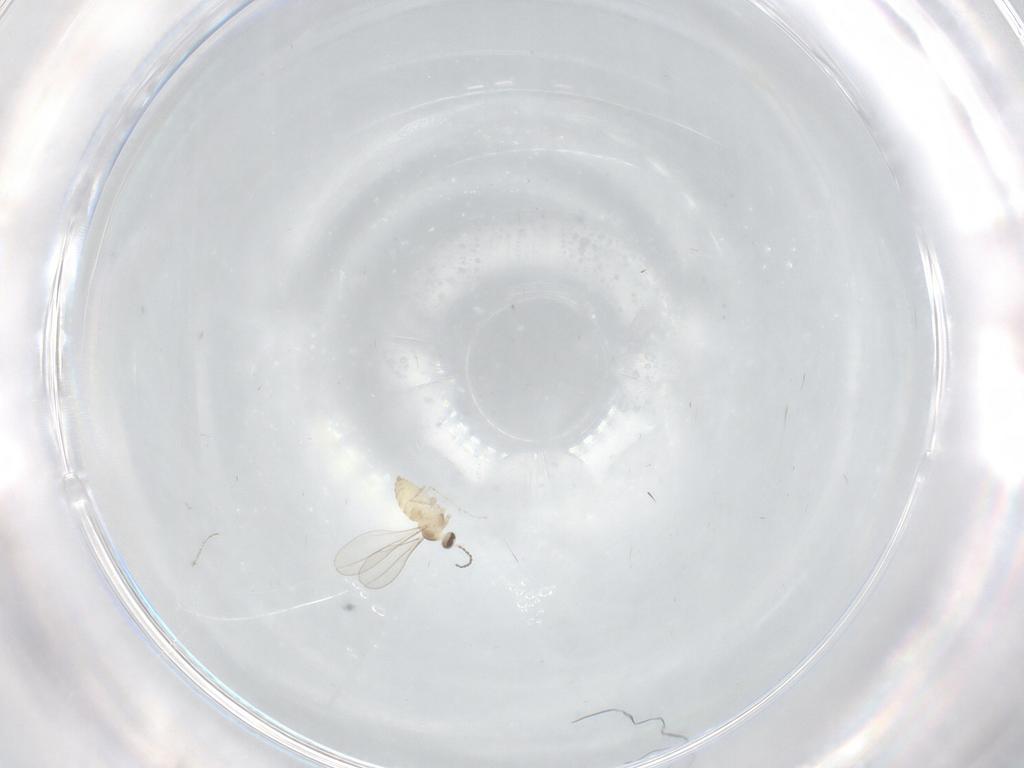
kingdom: Animalia
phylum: Arthropoda
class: Insecta
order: Diptera
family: Cecidomyiidae
